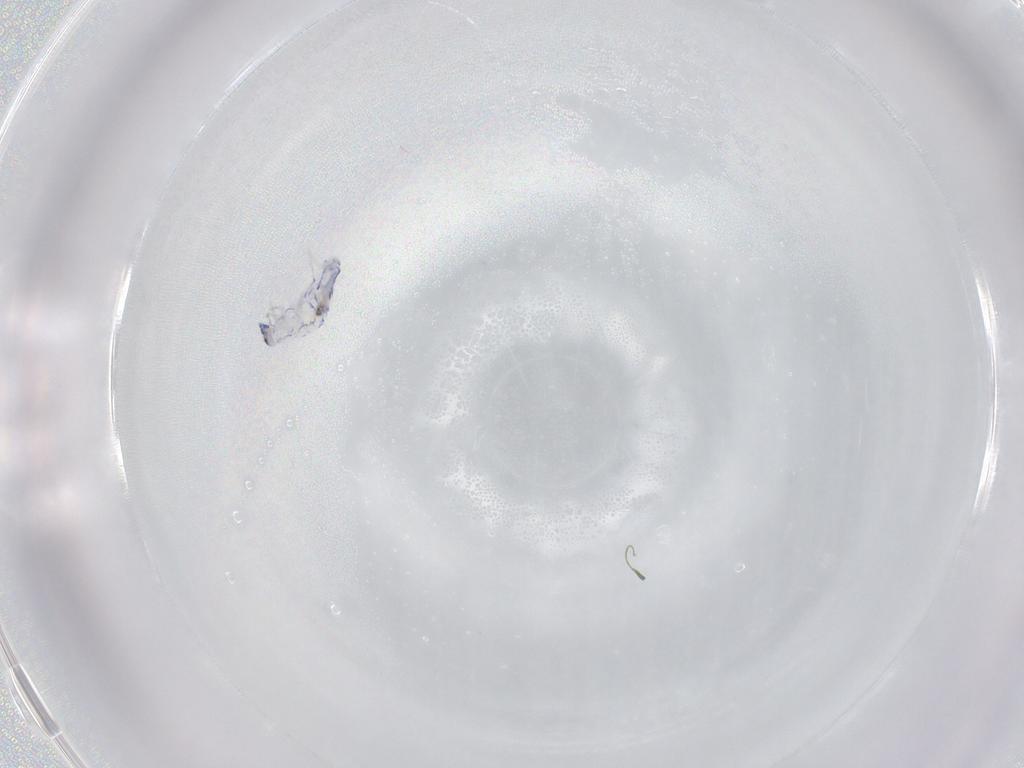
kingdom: Animalia
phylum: Arthropoda
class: Collembola
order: Entomobryomorpha
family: Entomobryidae
